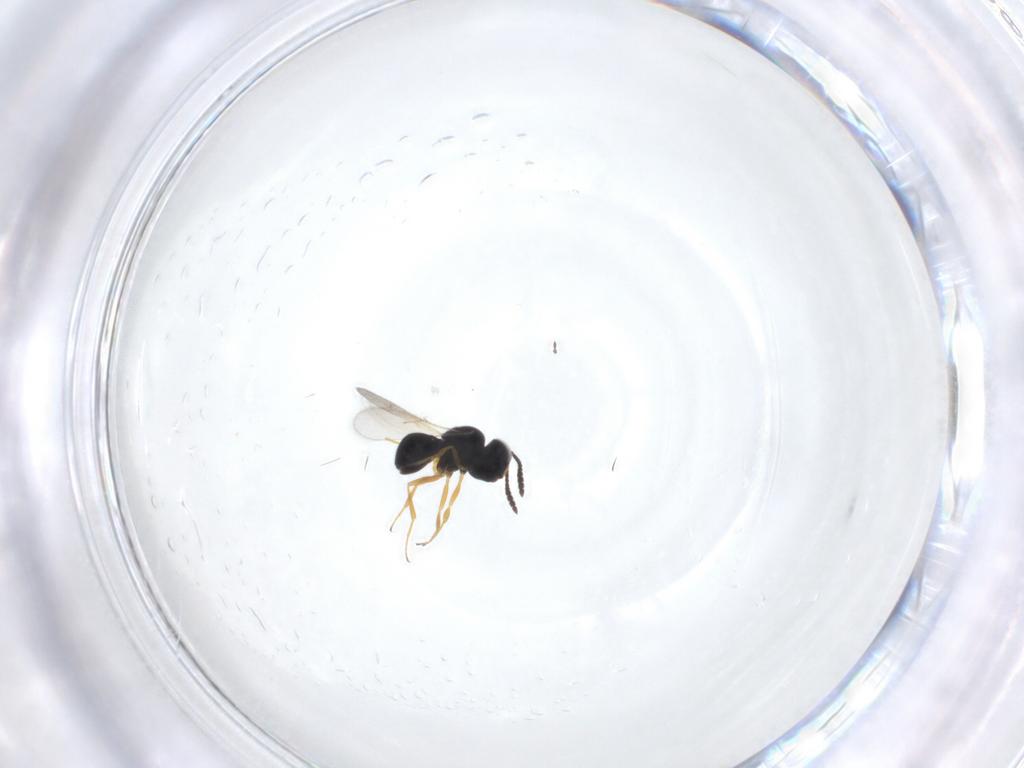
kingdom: Animalia
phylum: Arthropoda
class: Insecta
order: Hymenoptera
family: Scelionidae
